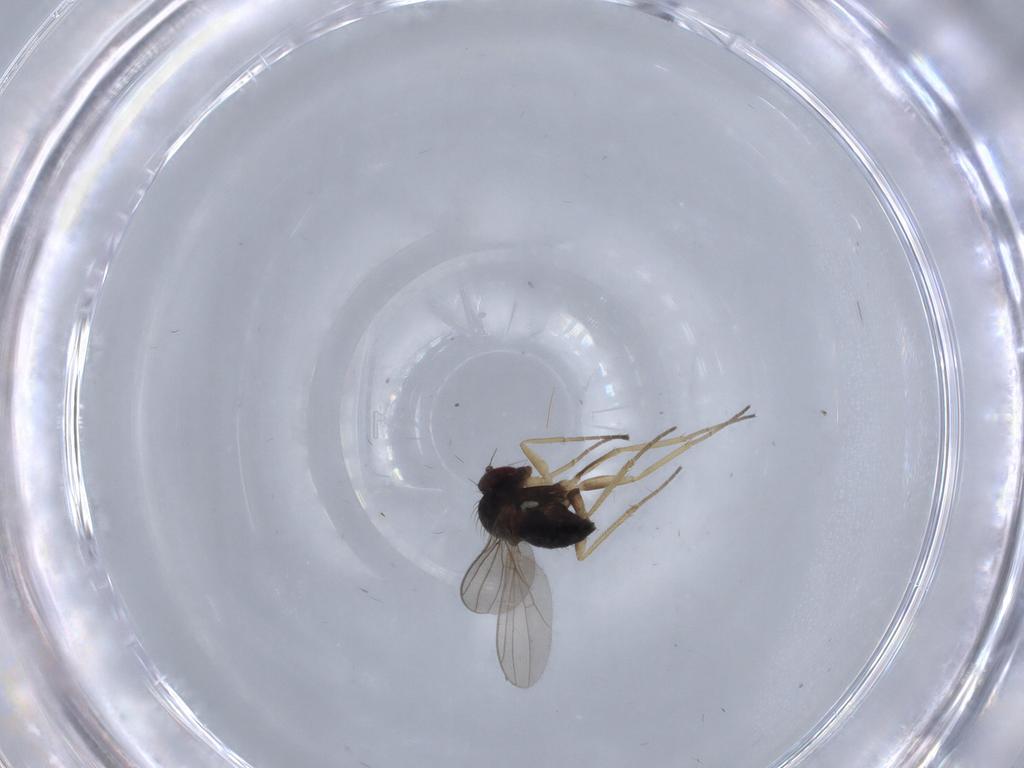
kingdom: Animalia
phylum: Arthropoda
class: Insecta
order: Diptera
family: Dolichopodidae
